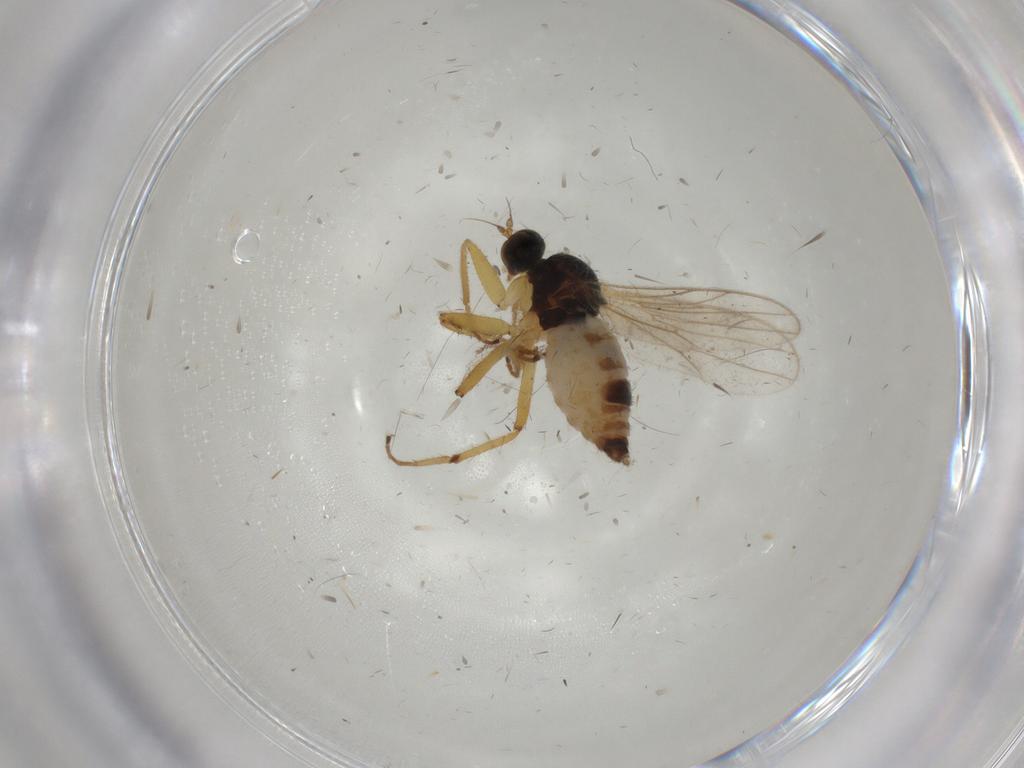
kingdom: Animalia
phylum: Arthropoda
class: Insecta
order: Diptera
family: Hybotidae
